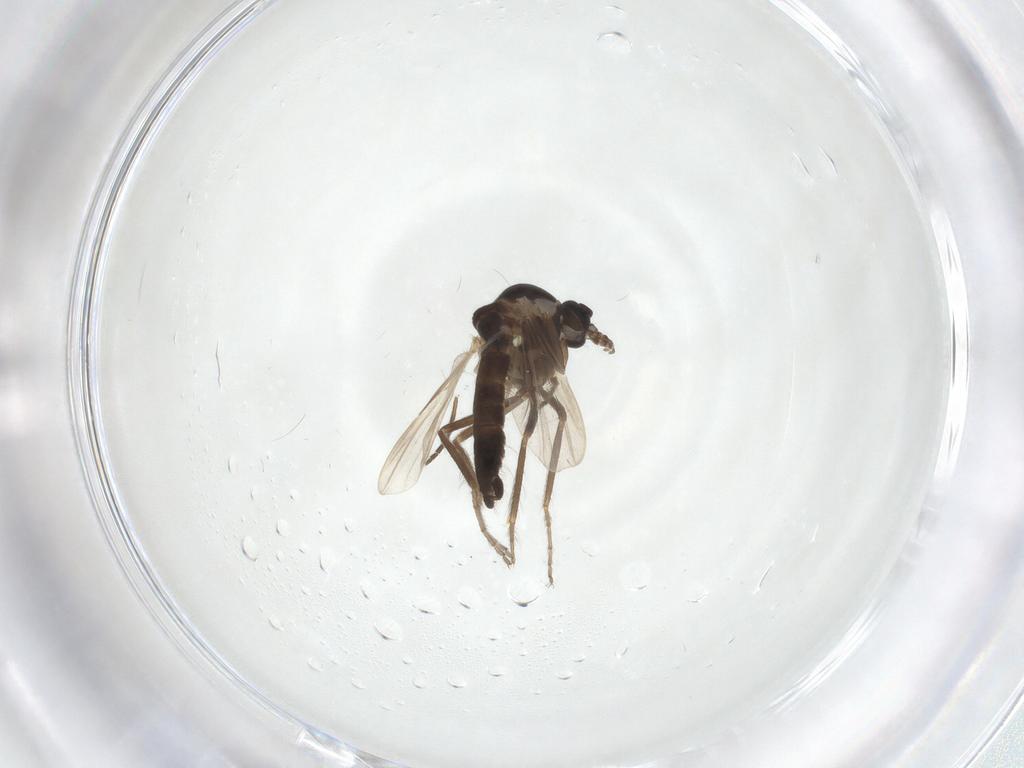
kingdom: Animalia
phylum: Arthropoda
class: Insecta
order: Diptera
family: Ceratopogonidae
